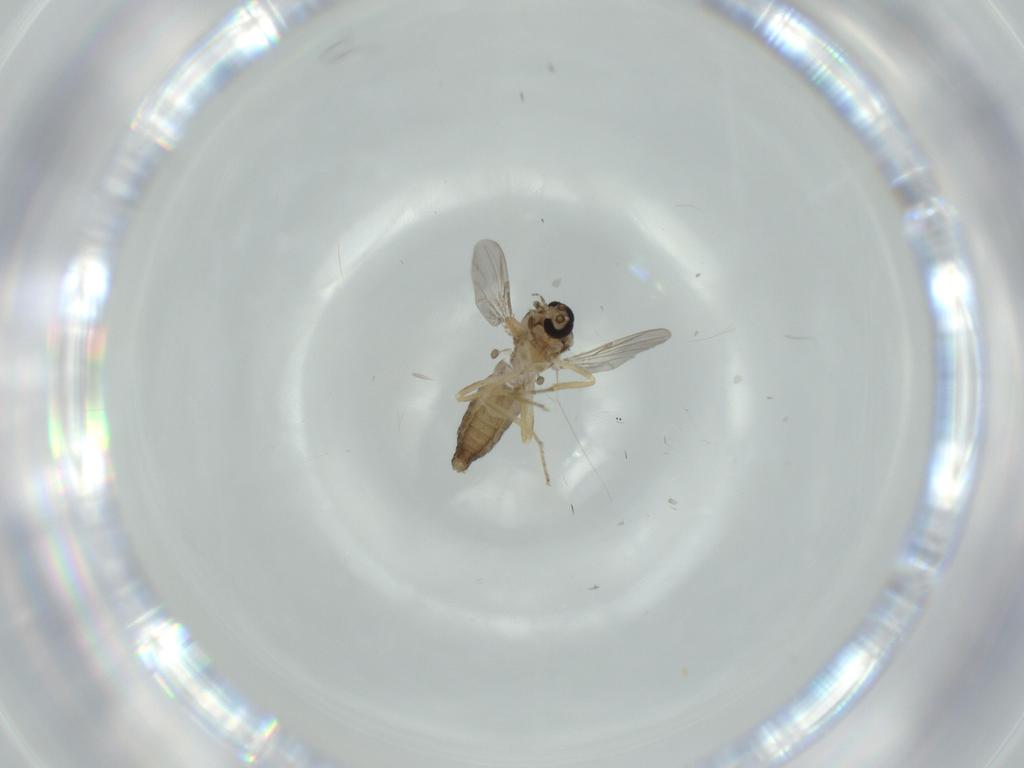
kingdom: Animalia
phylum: Arthropoda
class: Insecta
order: Diptera
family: Ceratopogonidae
